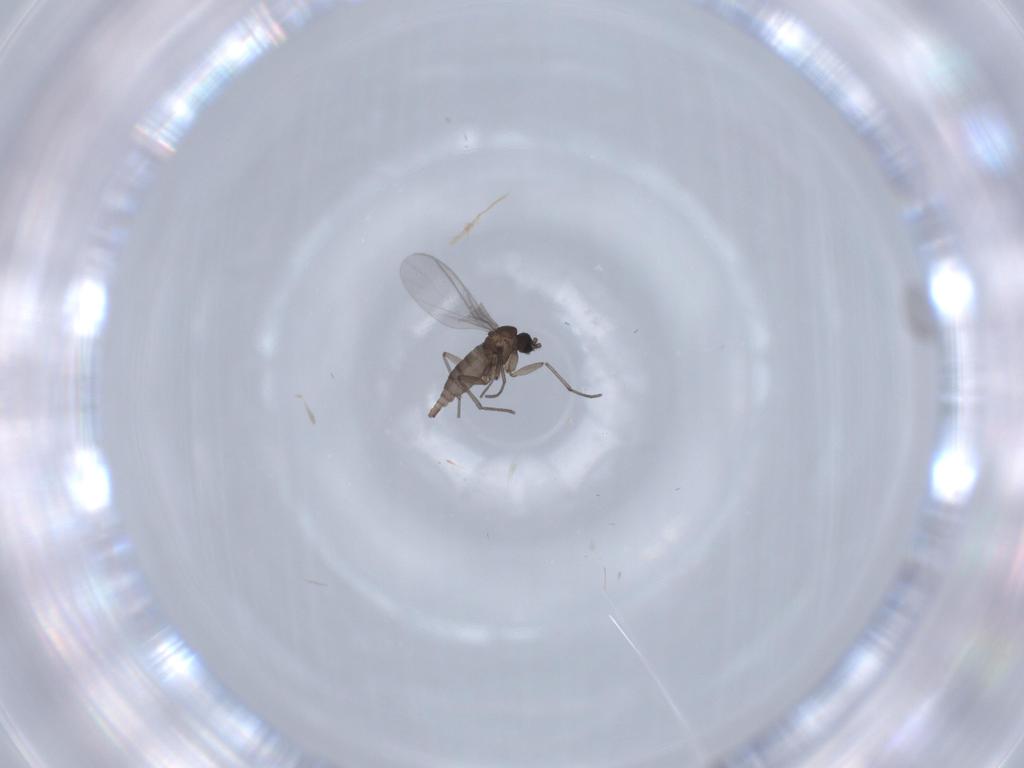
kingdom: Animalia
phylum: Arthropoda
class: Insecta
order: Diptera
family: Sciaridae
